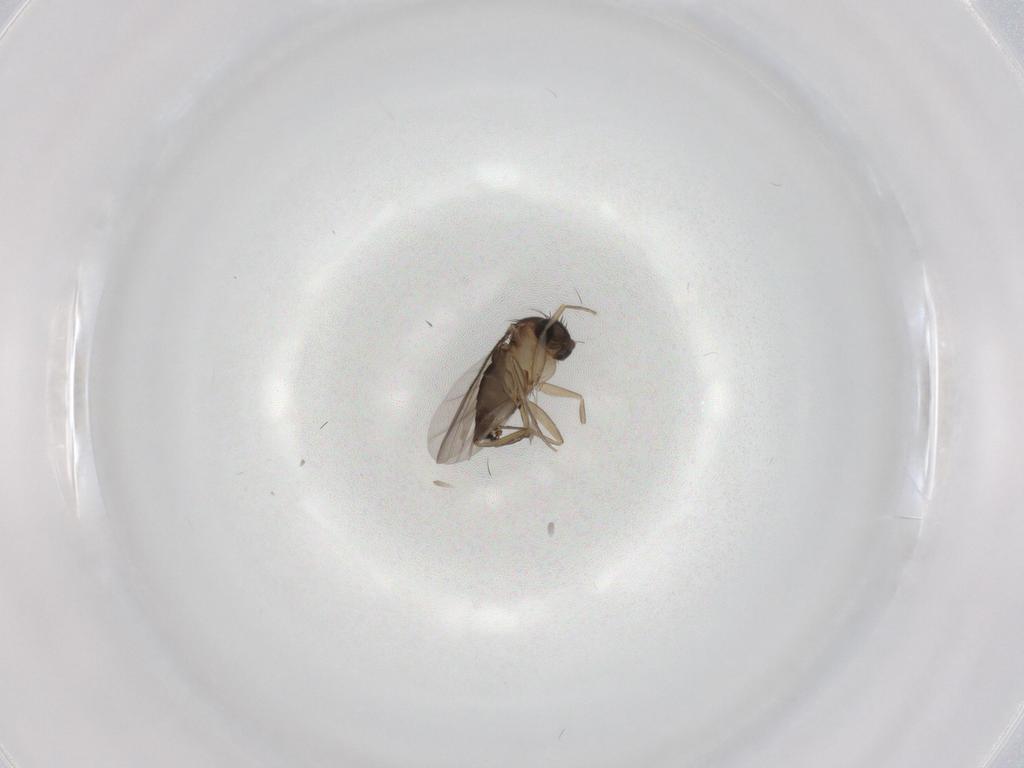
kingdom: Animalia
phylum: Arthropoda
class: Insecta
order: Diptera
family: Phoridae
